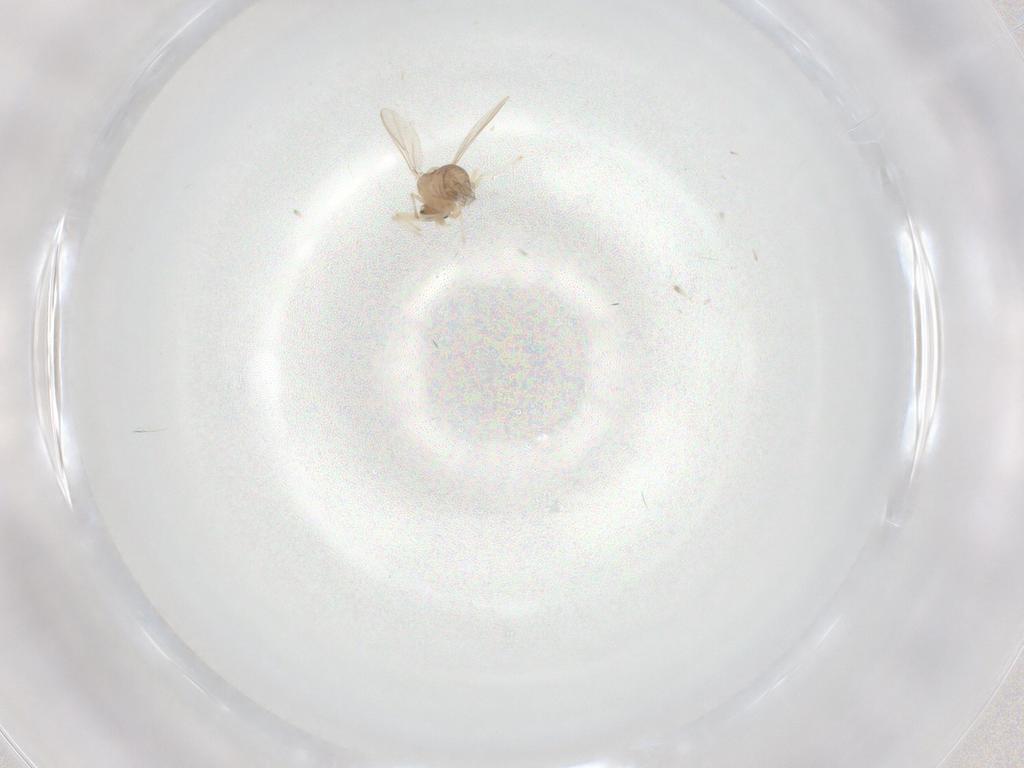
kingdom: Animalia
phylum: Arthropoda
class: Insecta
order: Diptera
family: Chironomidae
